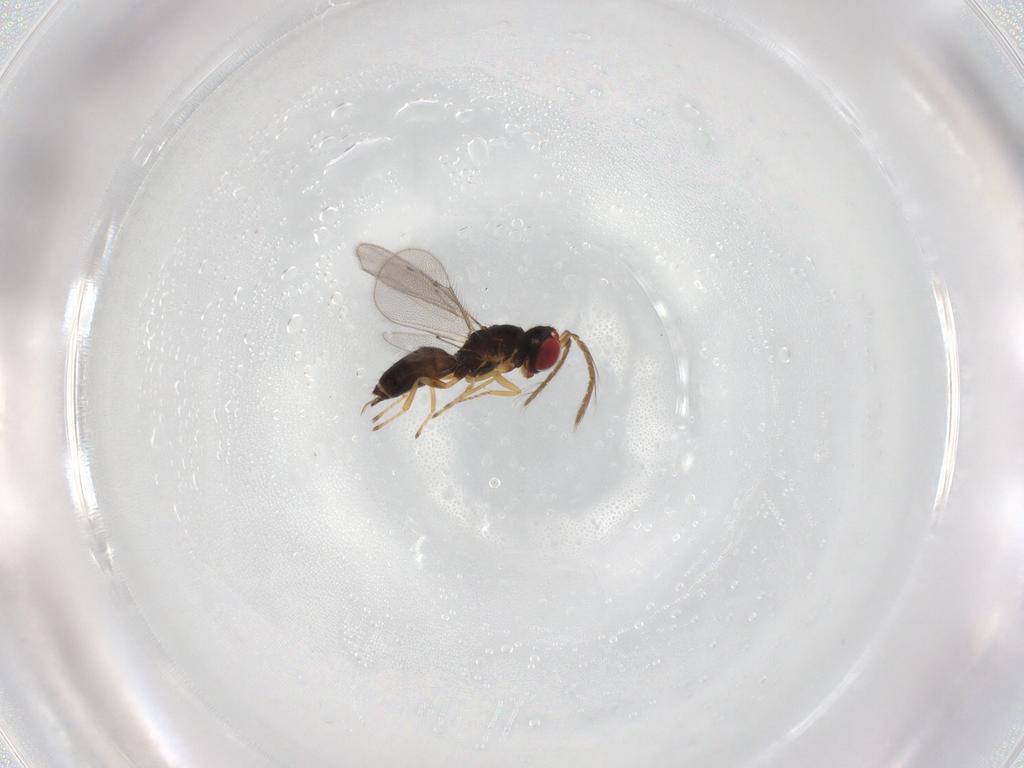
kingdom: Animalia
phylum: Arthropoda
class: Insecta
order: Hymenoptera
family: Eulophidae
